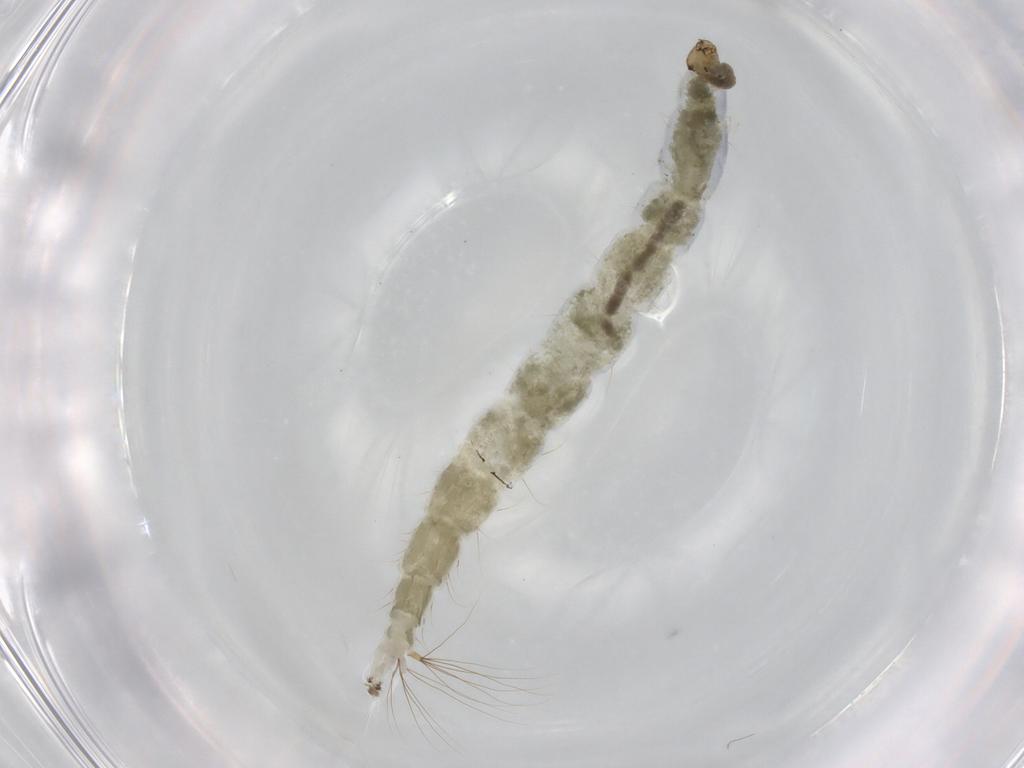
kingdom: Animalia
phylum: Arthropoda
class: Insecta
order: Diptera
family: Chironomidae
